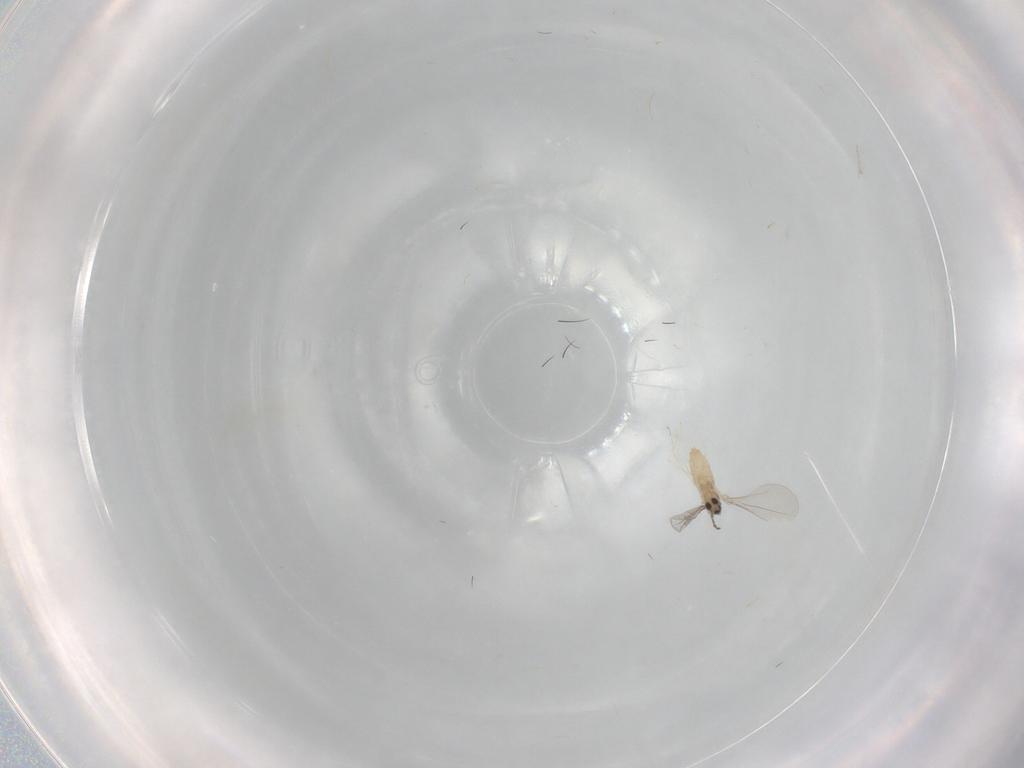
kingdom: Animalia
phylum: Arthropoda
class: Insecta
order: Diptera
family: Cecidomyiidae
